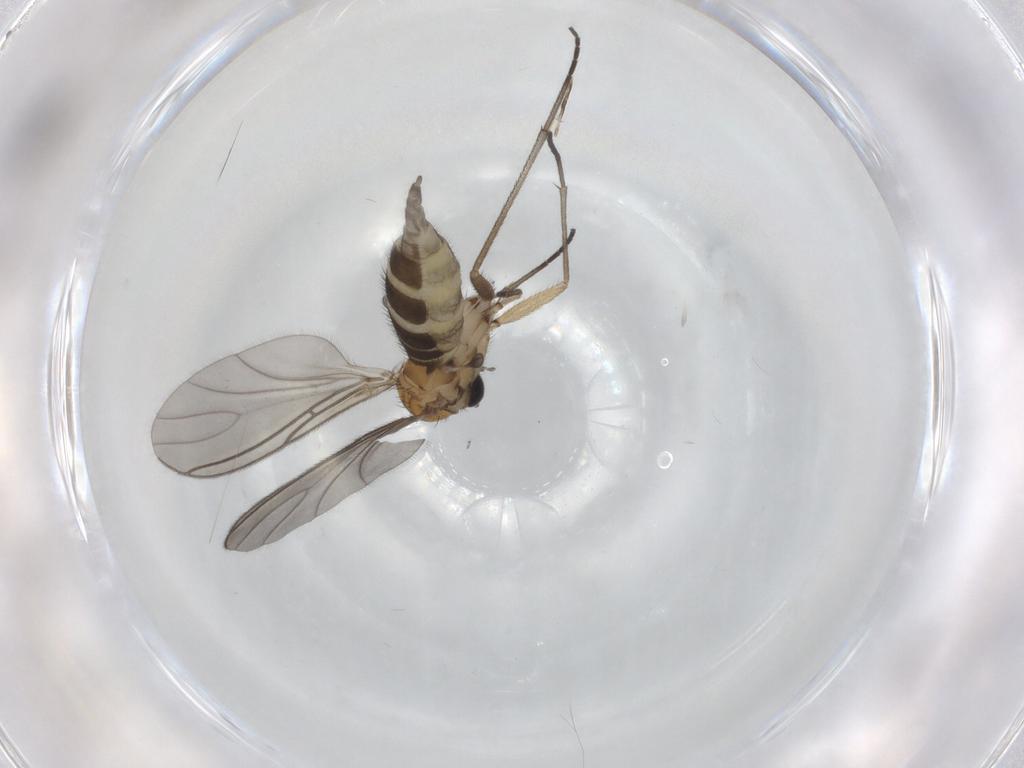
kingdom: Animalia
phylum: Arthropoda
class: Insecta
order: Diptera
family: Sciaridae
